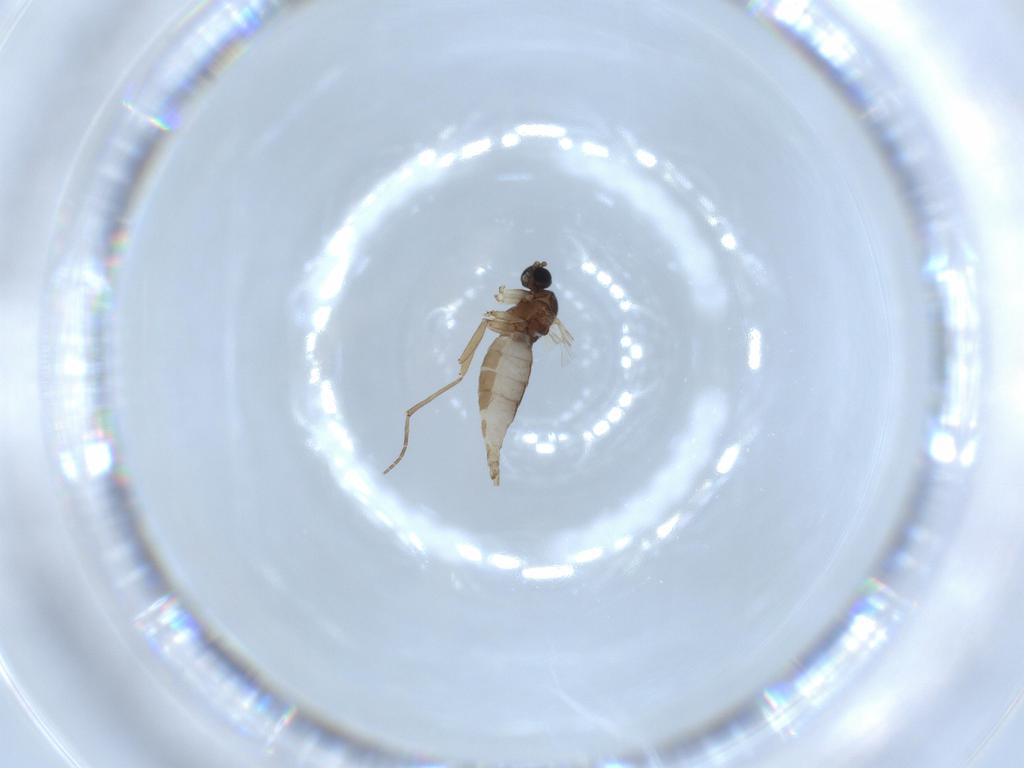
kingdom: Animalia
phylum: Arthropoda
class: Insecta
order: Diptera
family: Sciaridae
